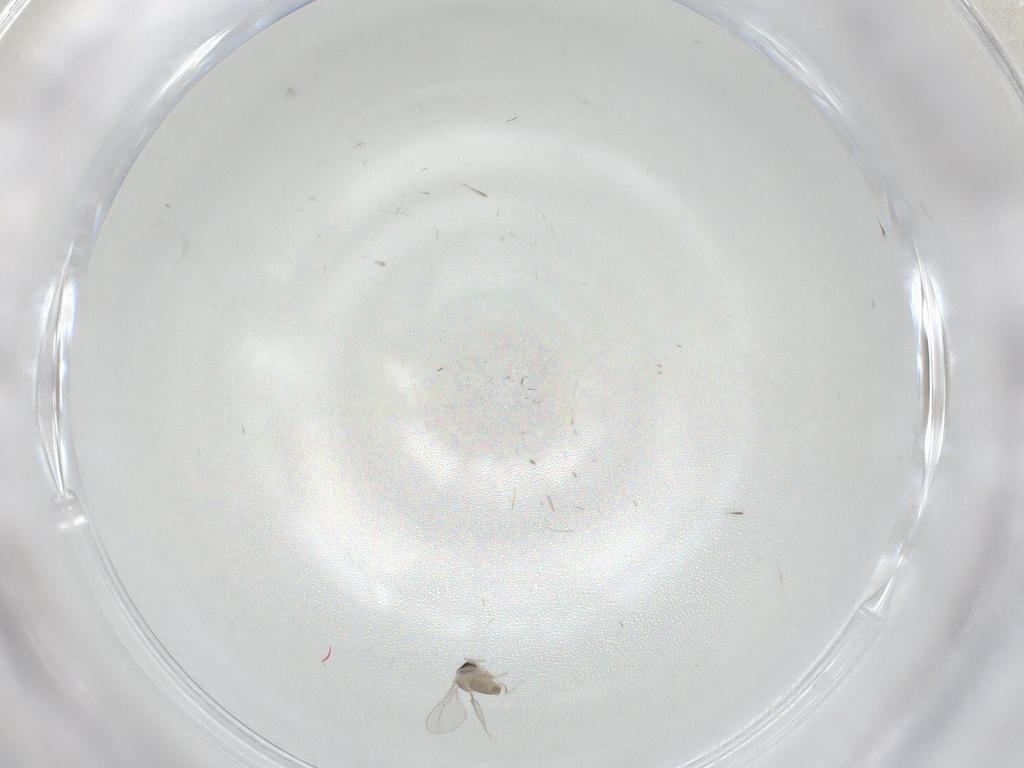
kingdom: Animalia
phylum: Arthropoda
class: Insecta
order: Diptera
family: Cecidomyiidae
